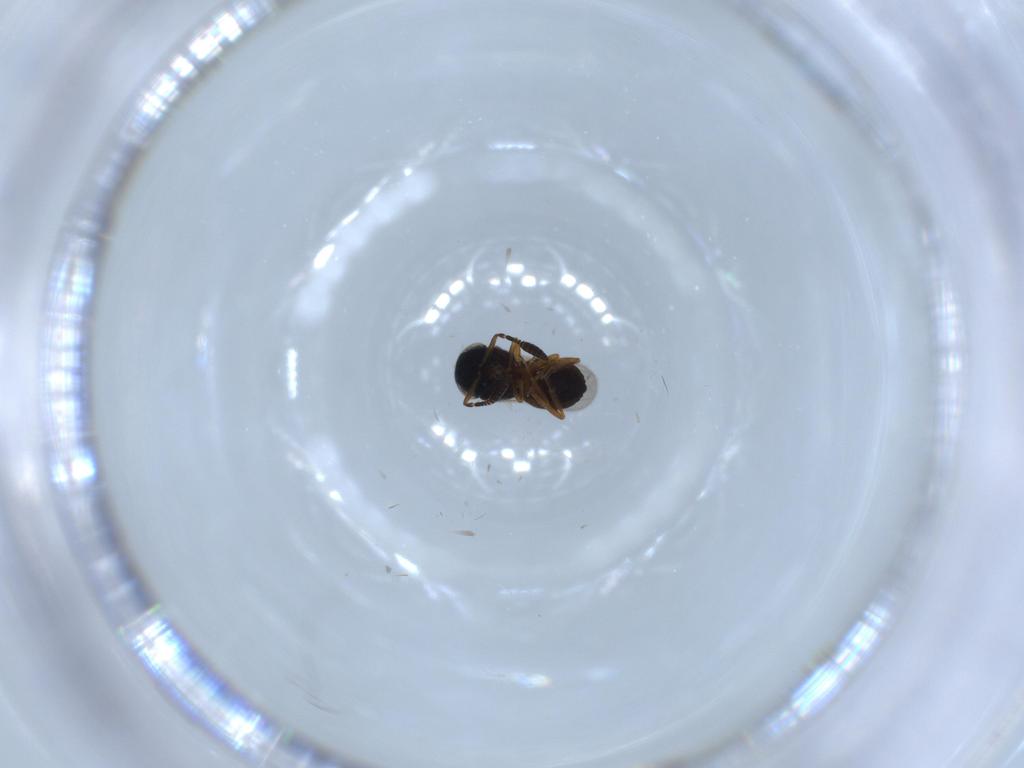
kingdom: Animalia
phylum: Arthropoda
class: Insecta
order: Hymenoptera
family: Scelionidae
